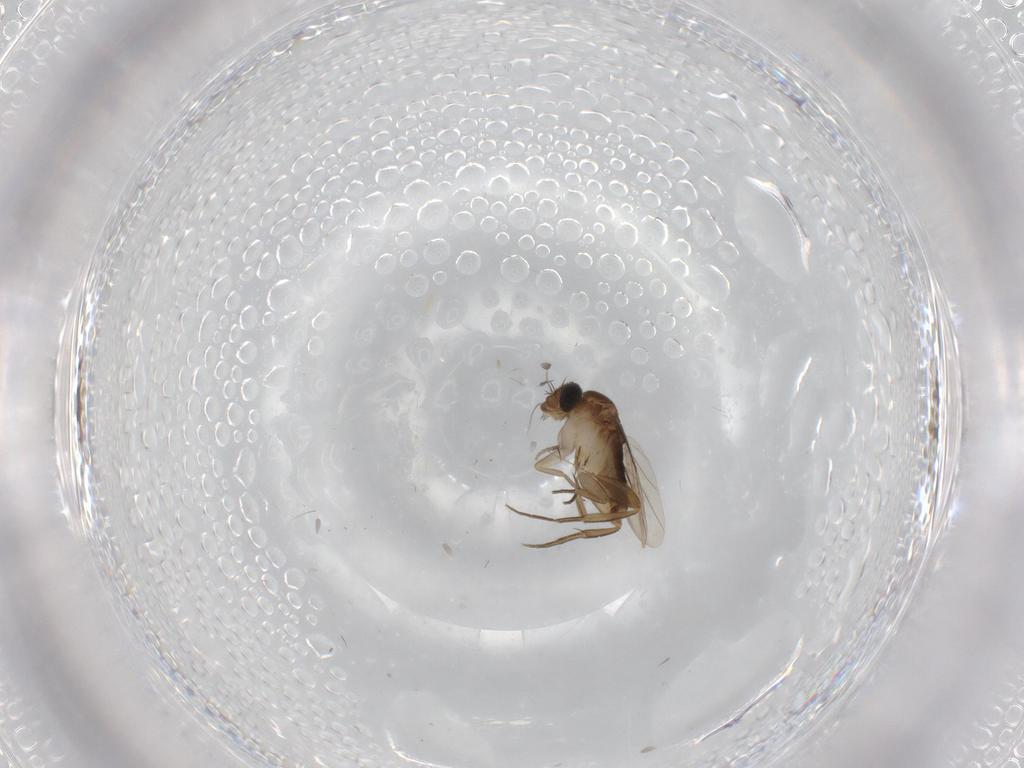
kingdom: Animalia
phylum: Arthropoda
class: Insecta
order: Diptera
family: Phoridae
